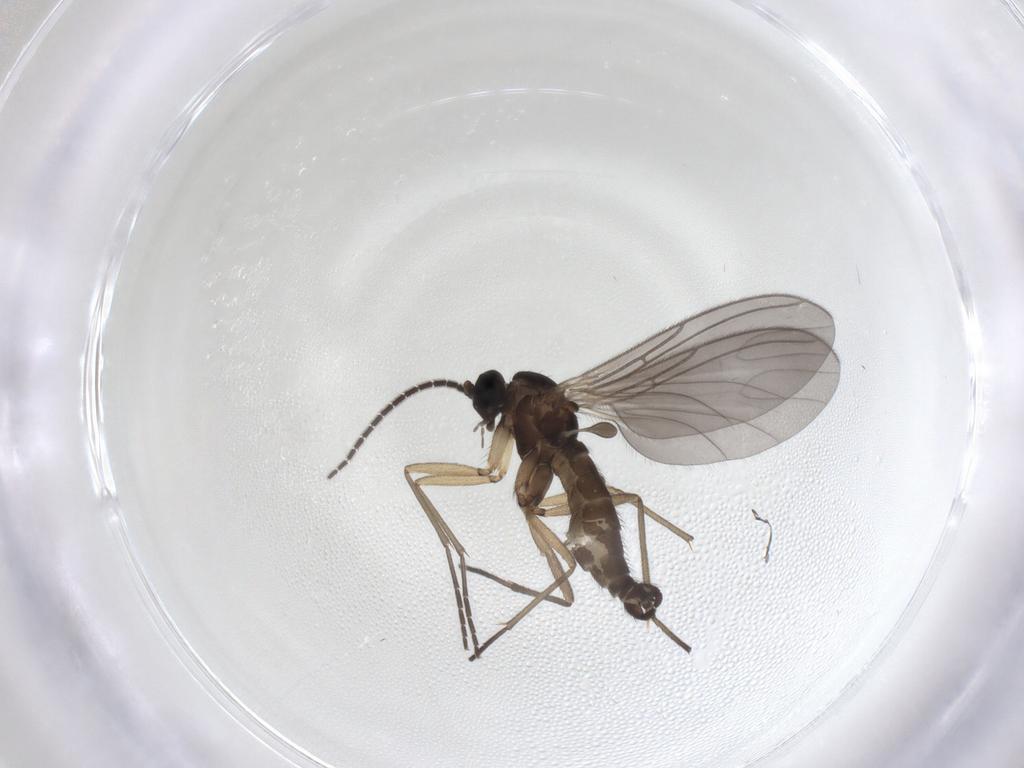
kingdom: Animalia
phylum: Arthropoda
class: Insecta
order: Diptera
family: Sciaridae
